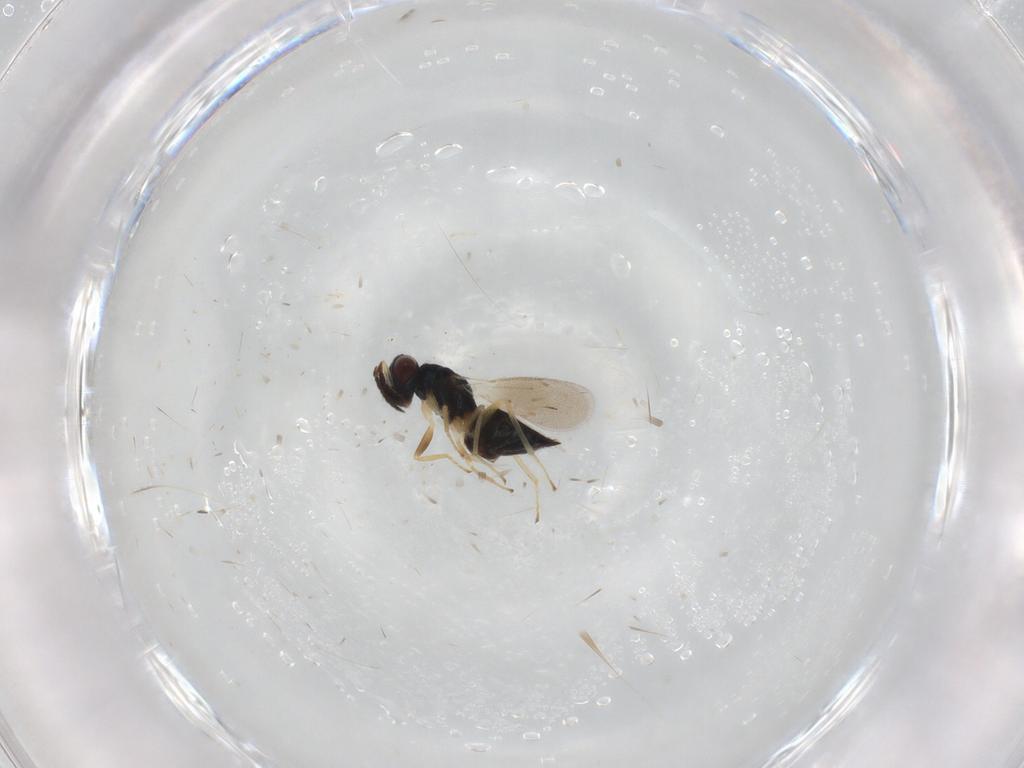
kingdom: Animalia
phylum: Arthropoda
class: Insecta
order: Hymenoptera
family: Eulophidae
